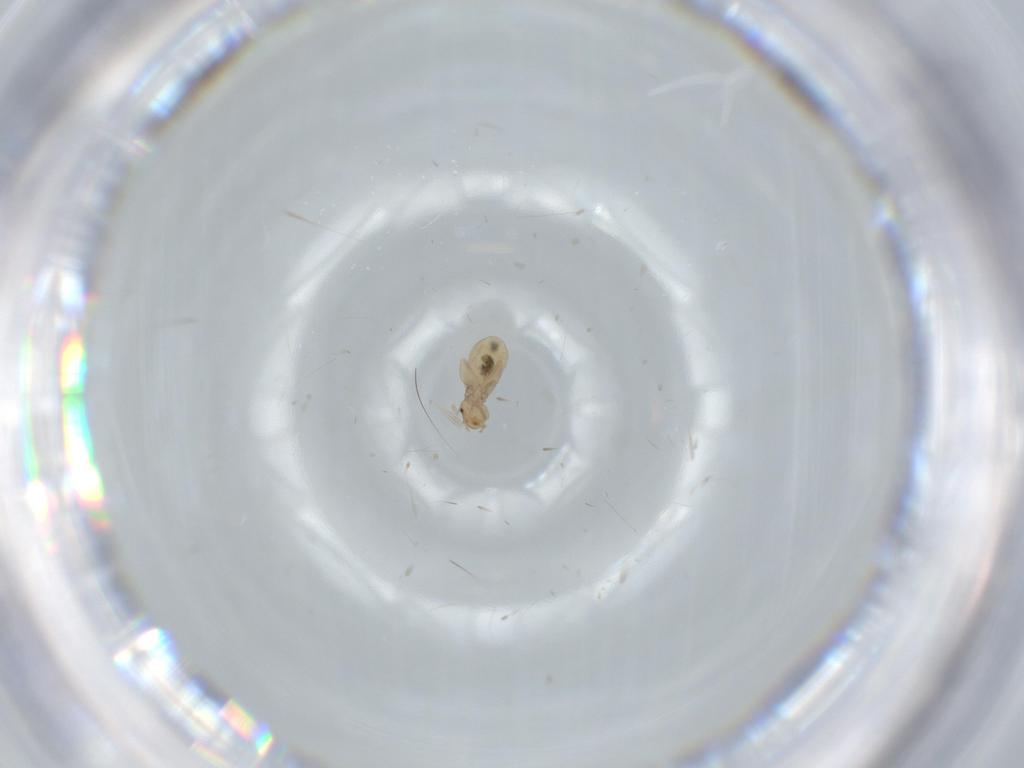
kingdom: Animalia
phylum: Arthropoda
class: Insecta
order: Psocodea
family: Liposcelididae
